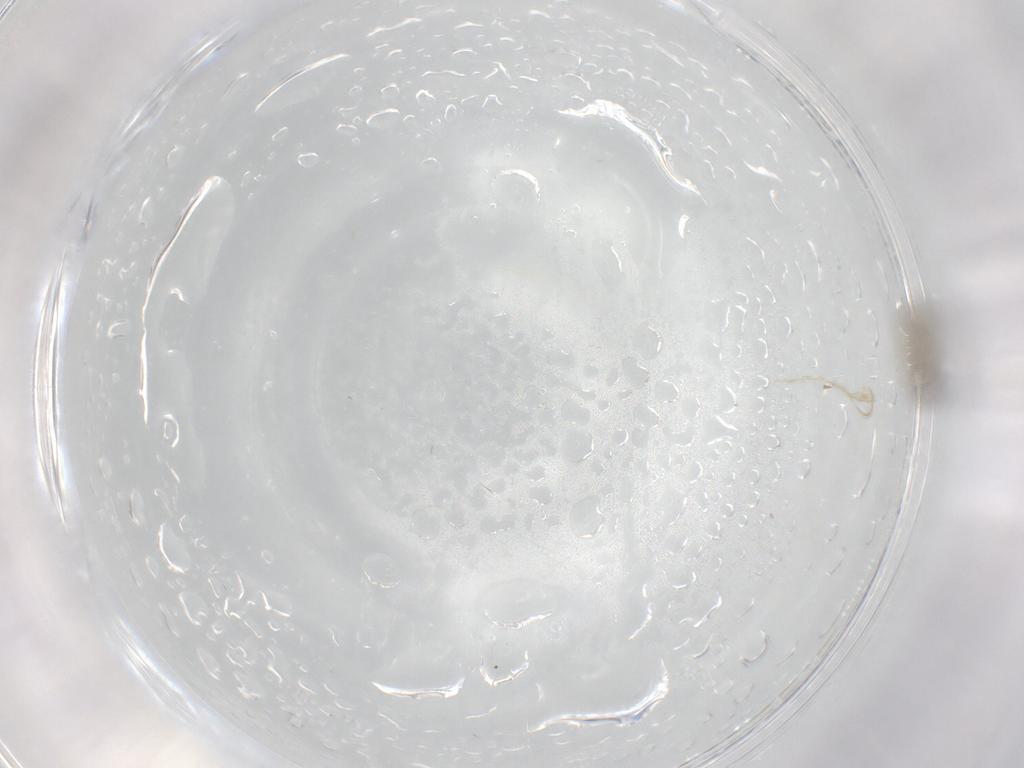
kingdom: Animalia
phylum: Arthropoda
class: Insecta
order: Diptera
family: Cecidomyiidae
